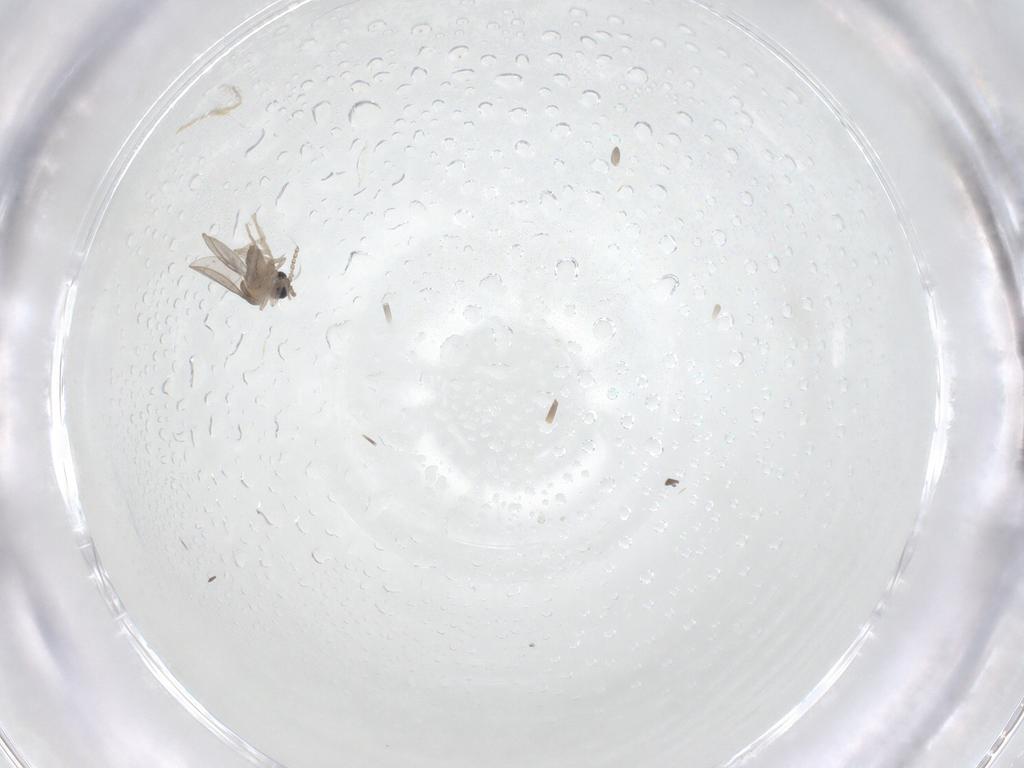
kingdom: Animalia
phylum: Arthropoda
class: Insecta
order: Diptera
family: Cecidomyiidae
